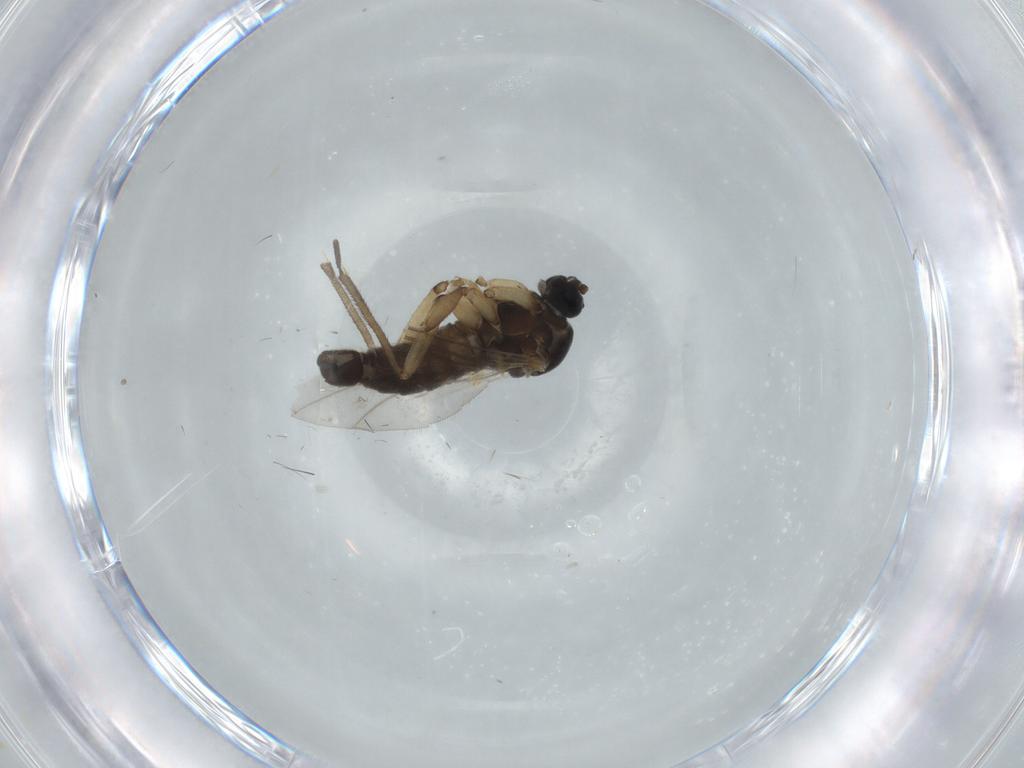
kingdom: Animalia
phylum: Arthropoda
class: Insecta
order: Diptera
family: Sciaridae
